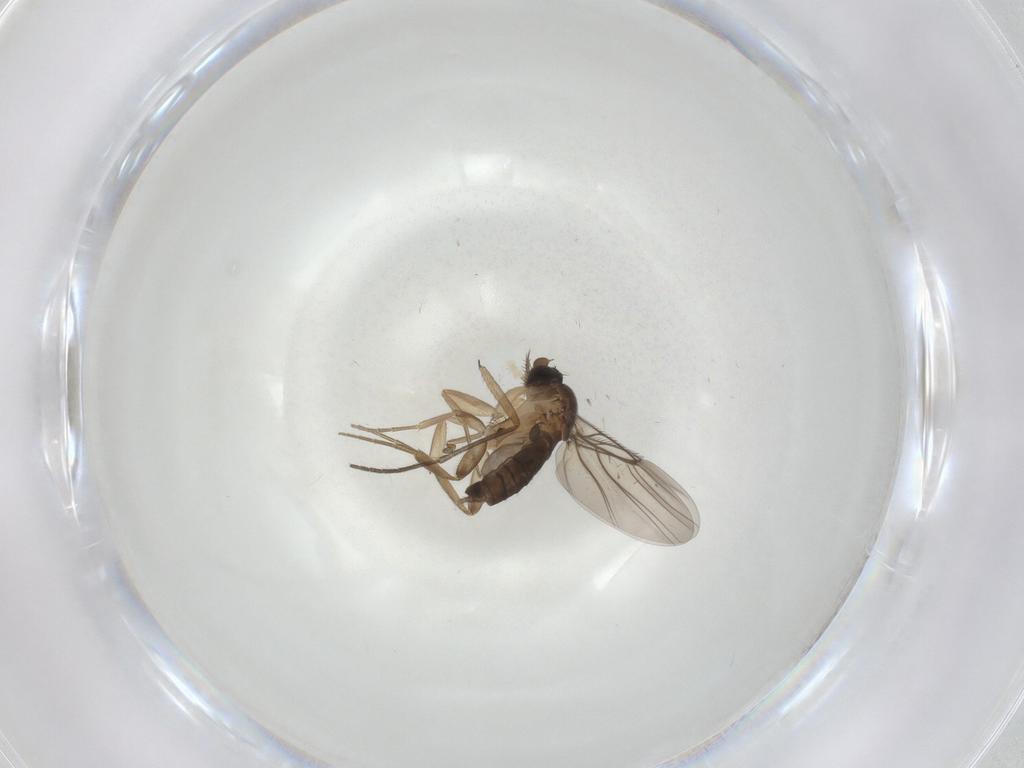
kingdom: Animalia
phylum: Arthropoda
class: Insecta
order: Diptera
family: Phoridae
